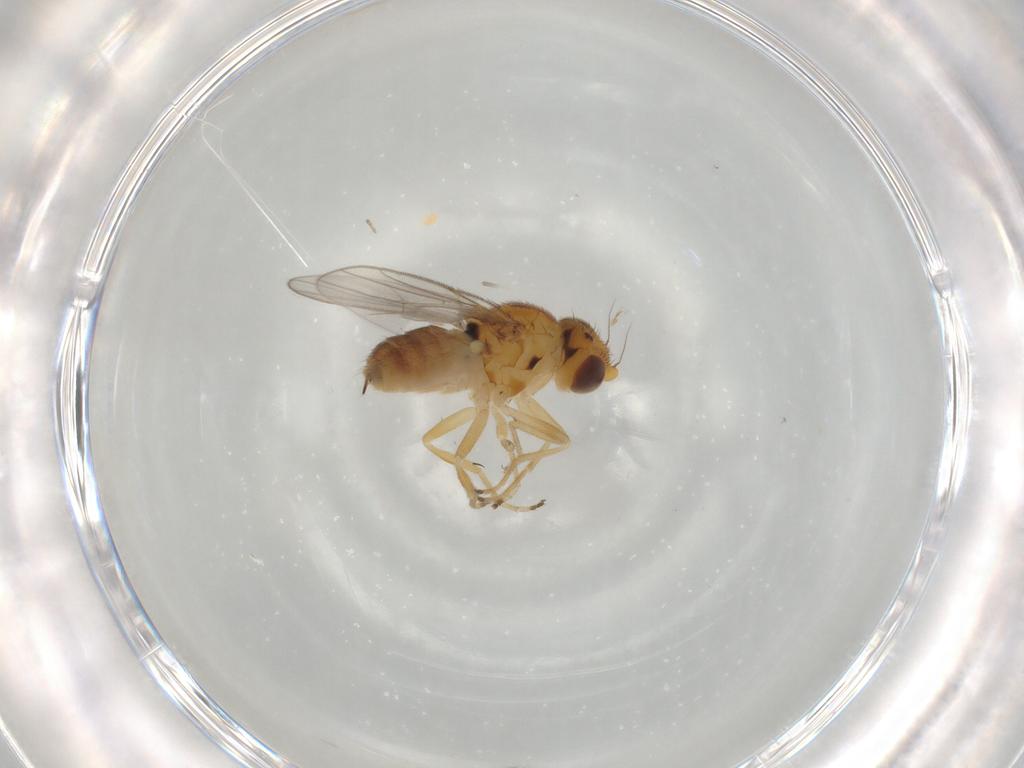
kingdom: Animalia
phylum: Arthropoda
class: Insecta
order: Diptera
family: Chloropidae
